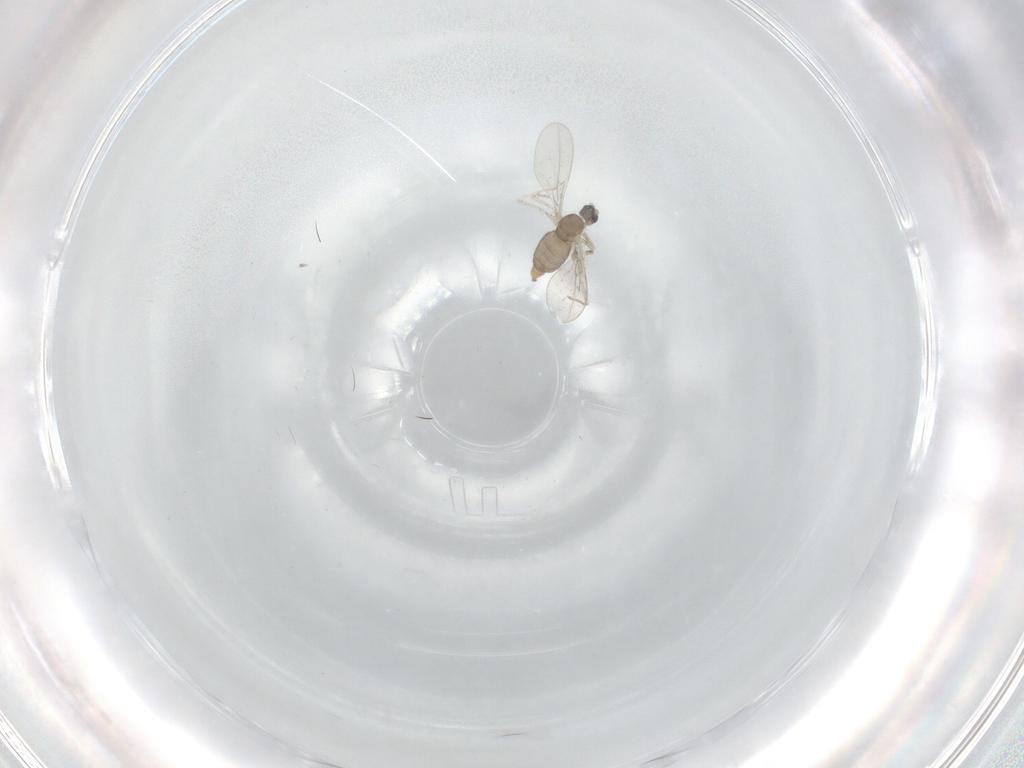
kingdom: Animalia
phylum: Arthropoda
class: Insecta
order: Diptera
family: Cecidomyiidae
